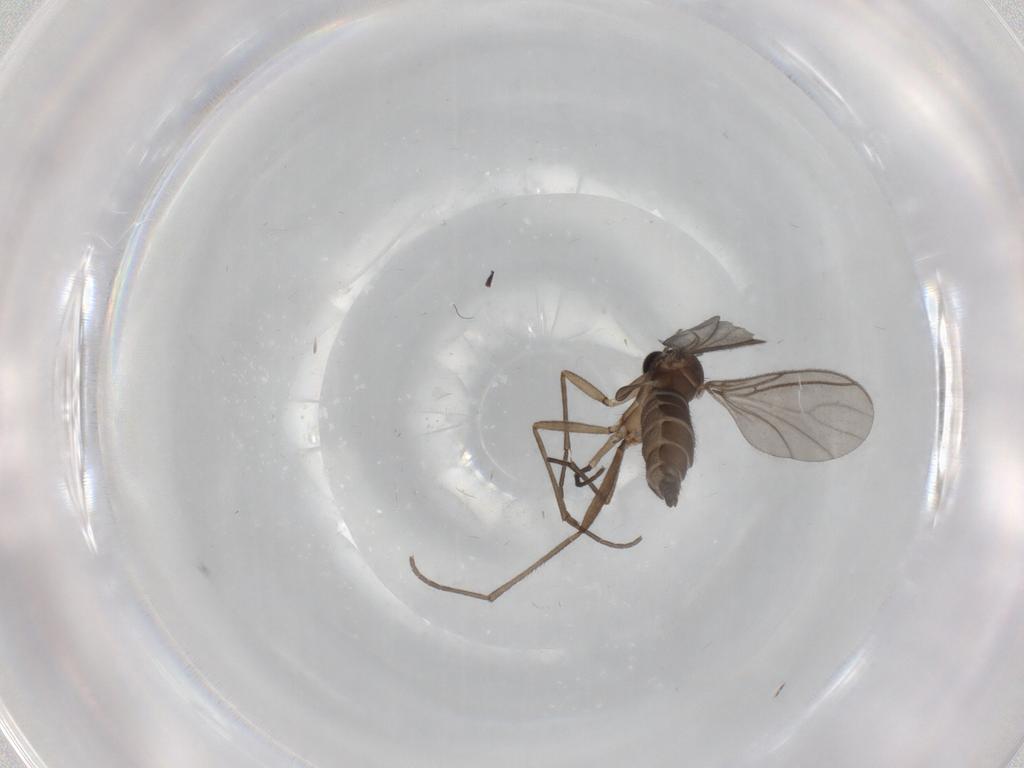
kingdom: Animalia
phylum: Arthropoda
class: Insecta
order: Diptera
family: Sciaridae
